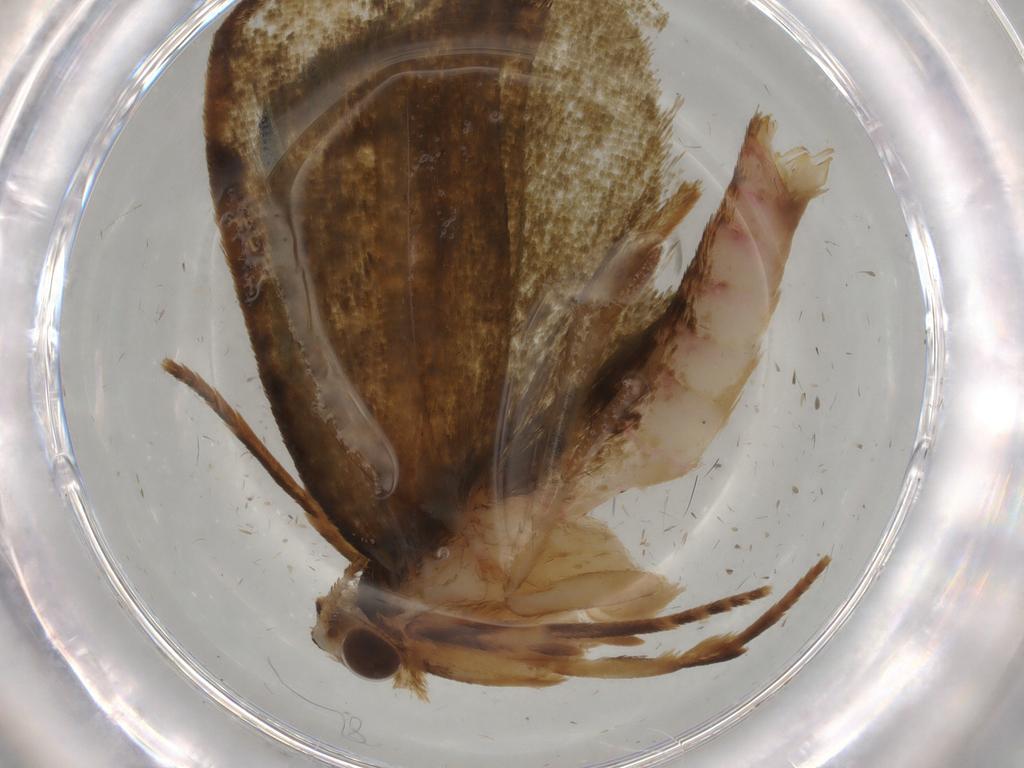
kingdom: Animalia
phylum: Arthropoda
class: Insecta
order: Lepidoptera
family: Geometridae
